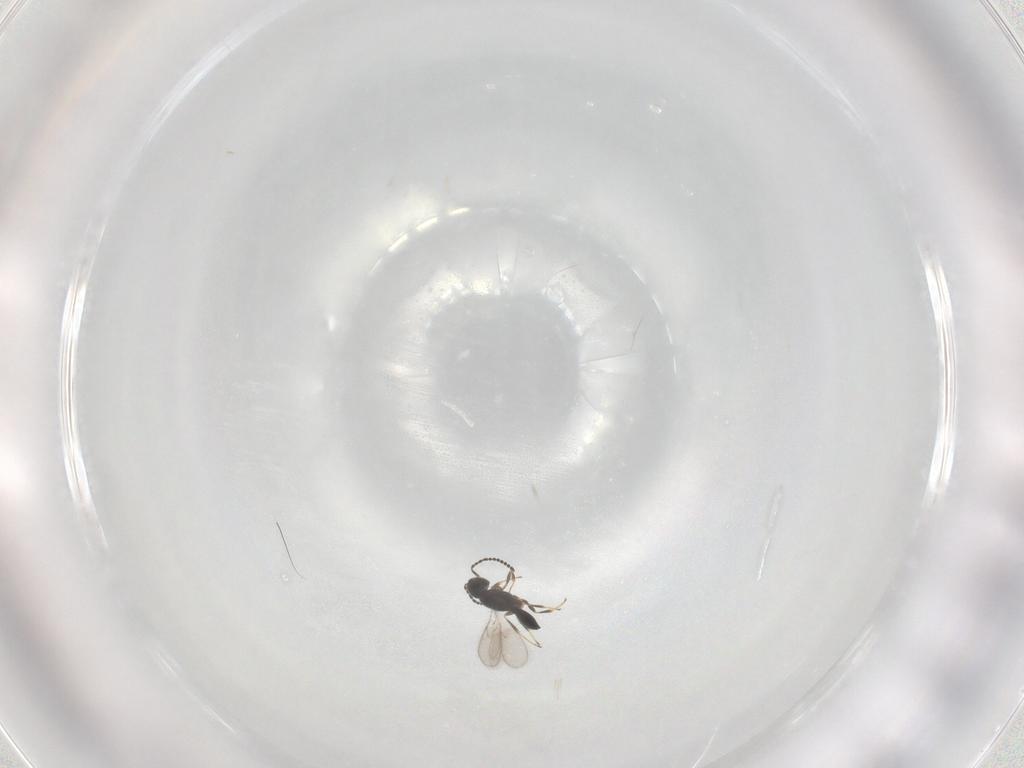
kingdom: Animalia
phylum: Arthropoda
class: Insecta
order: Hymenoptera
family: Scelionidae
